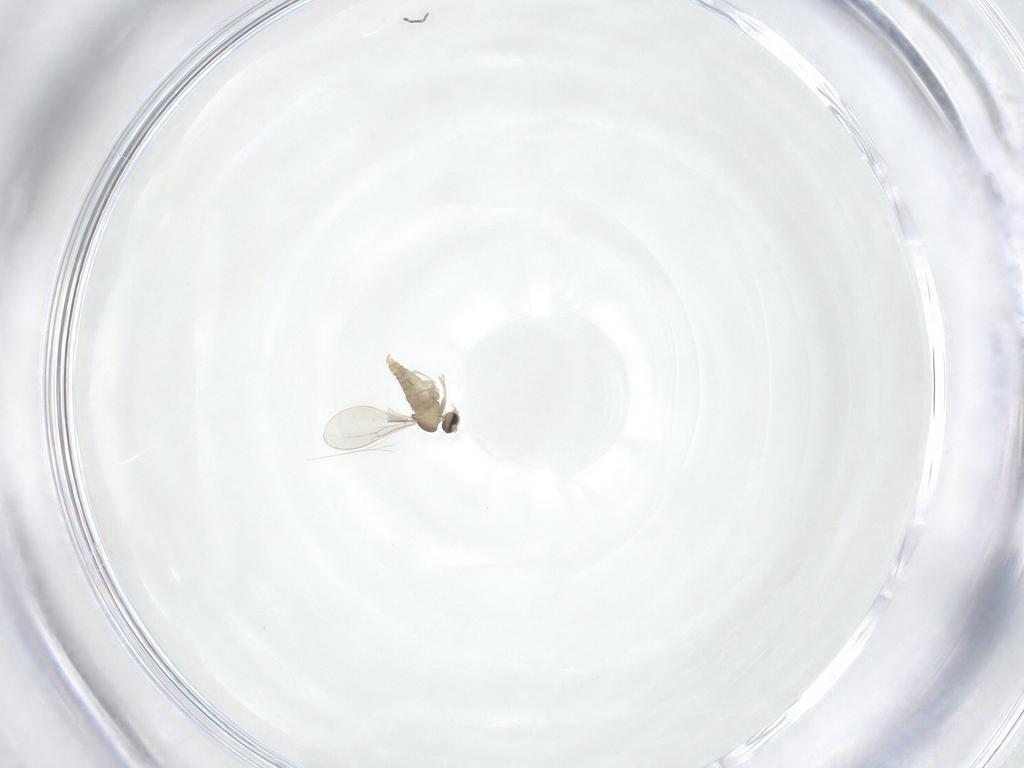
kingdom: Animalia
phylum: Arthropoda
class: Insecta
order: Diptera
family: Cecidomyiidae
